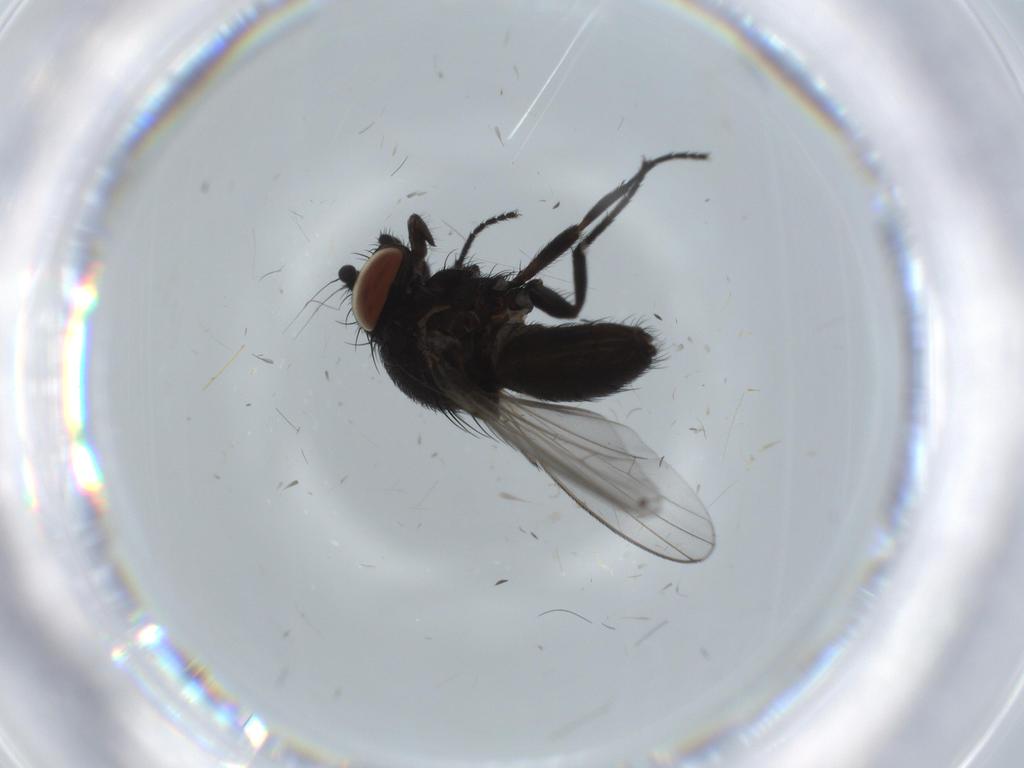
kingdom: Animalia
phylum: Arthropoda
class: Insecta
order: Diptera
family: Milichiidae
